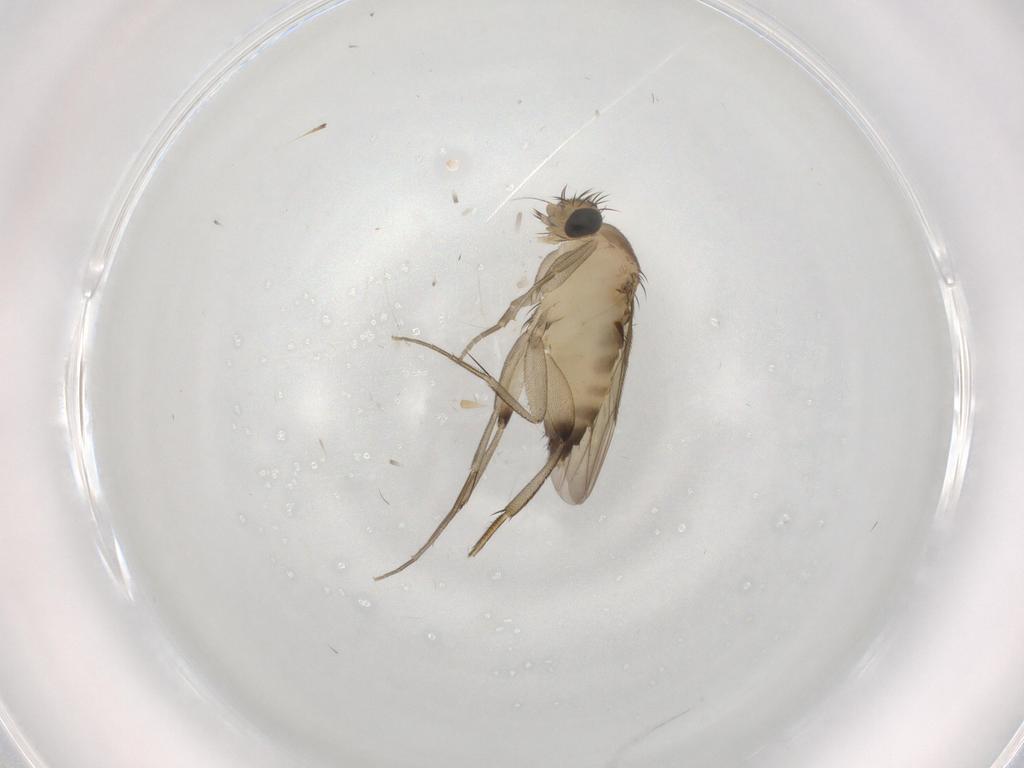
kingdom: Animalia
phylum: Arthropoda
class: Insecta
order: Diptera
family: Phoridae
